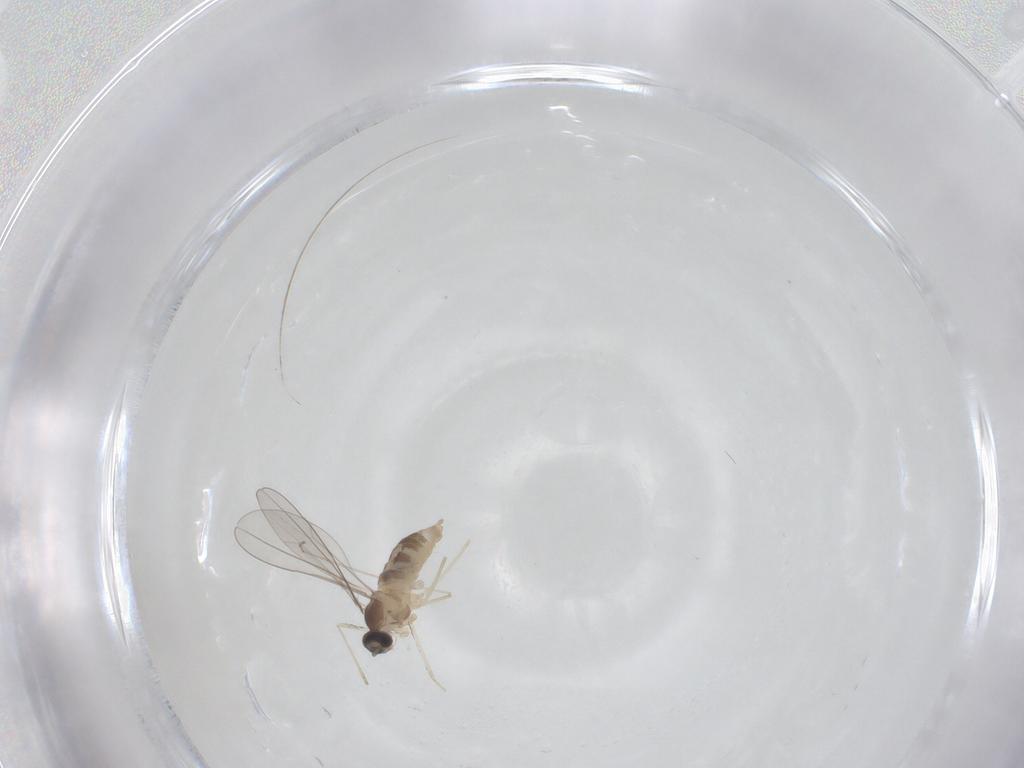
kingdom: Animalia
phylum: Arthropoda
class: Insecta
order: Diptera
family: Cecidomyiidae
